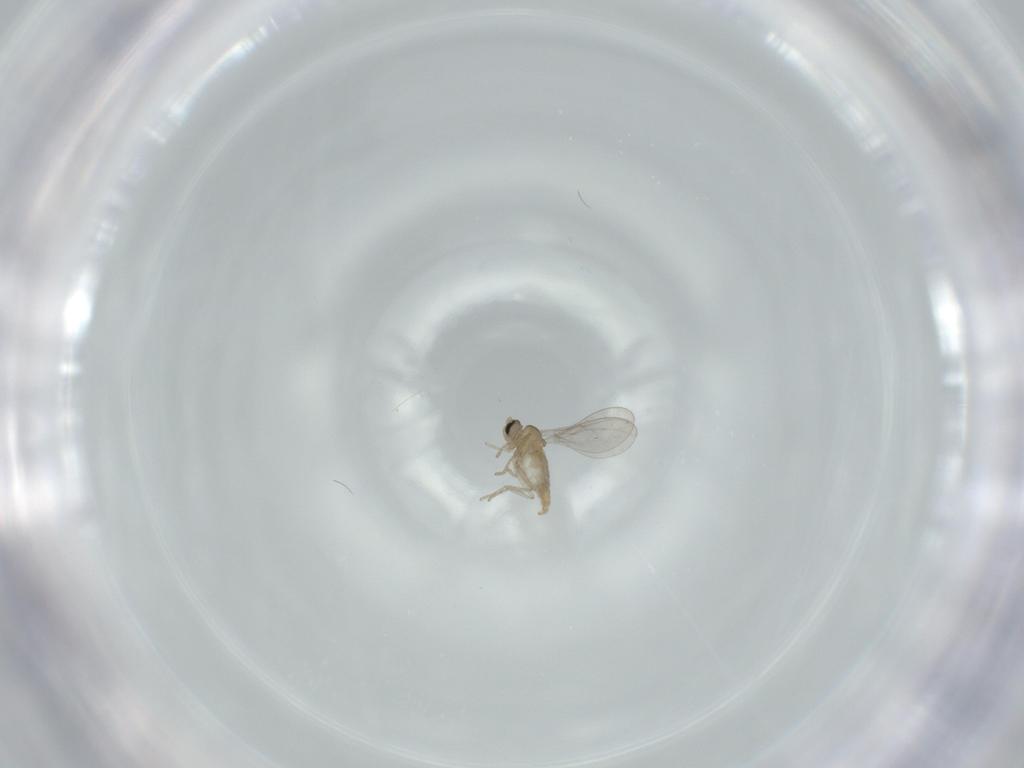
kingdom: Animalia
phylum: Arthropoda
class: Insecta
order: Diptera
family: Cecidomyiidae
